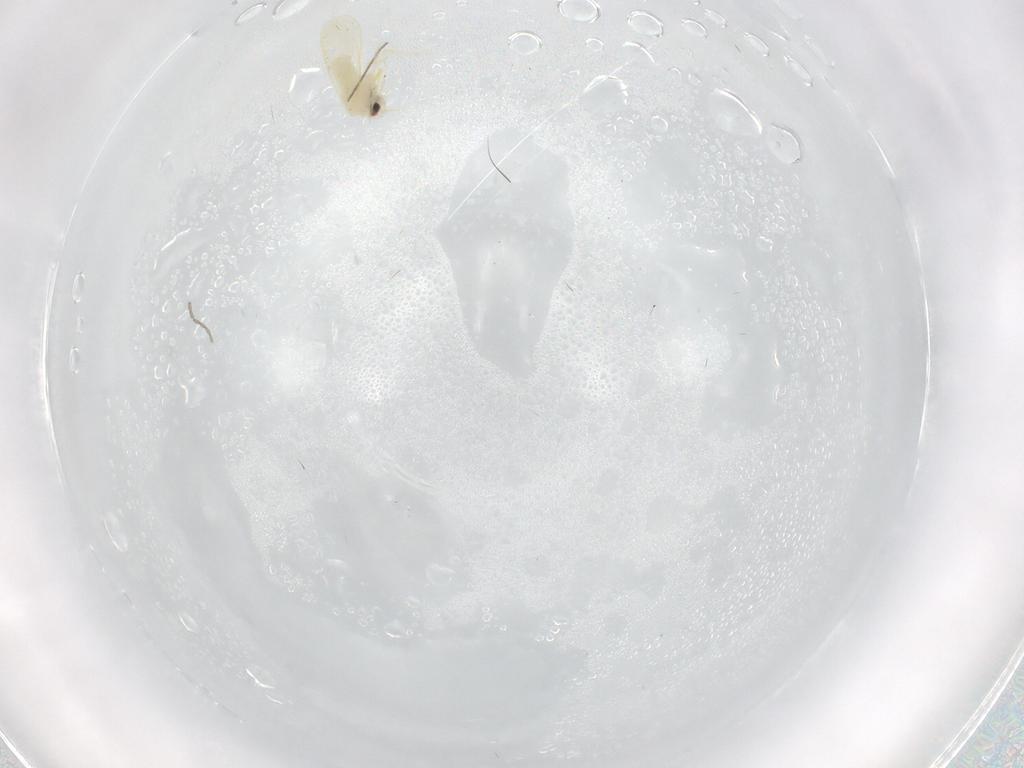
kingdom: Animalia
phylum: Arthropoda
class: Insecta
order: Hemiptera
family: Aleyrodidae
